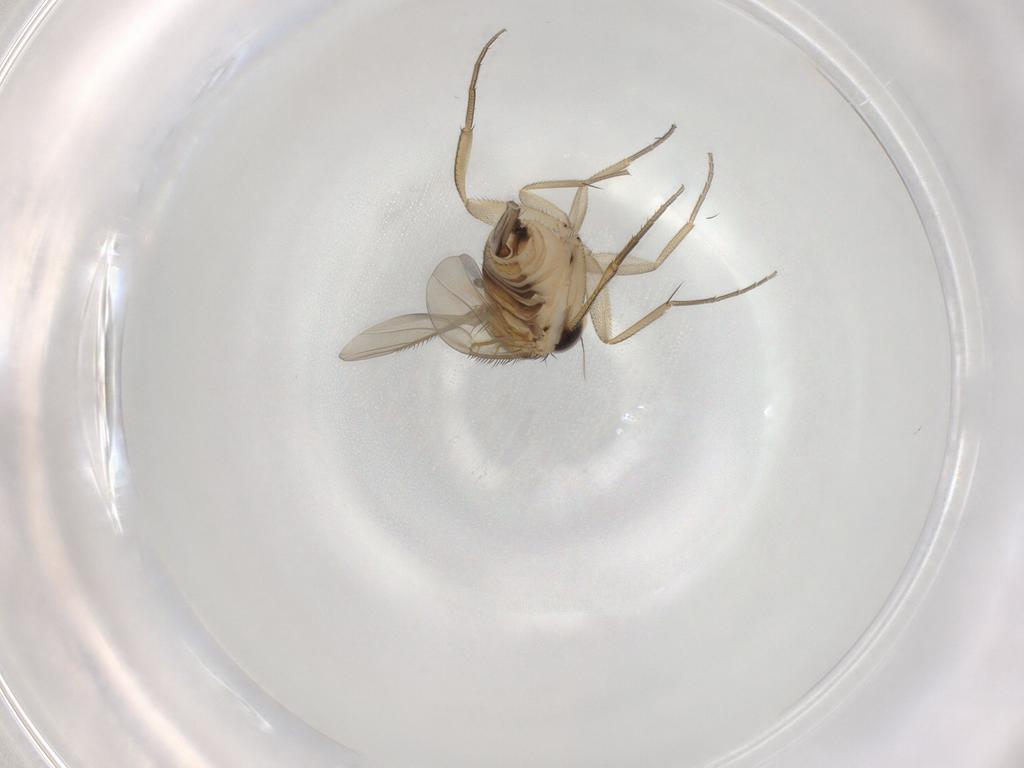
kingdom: Animalia
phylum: Arthropoda
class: Insecta
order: Diptera
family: Phoridae
